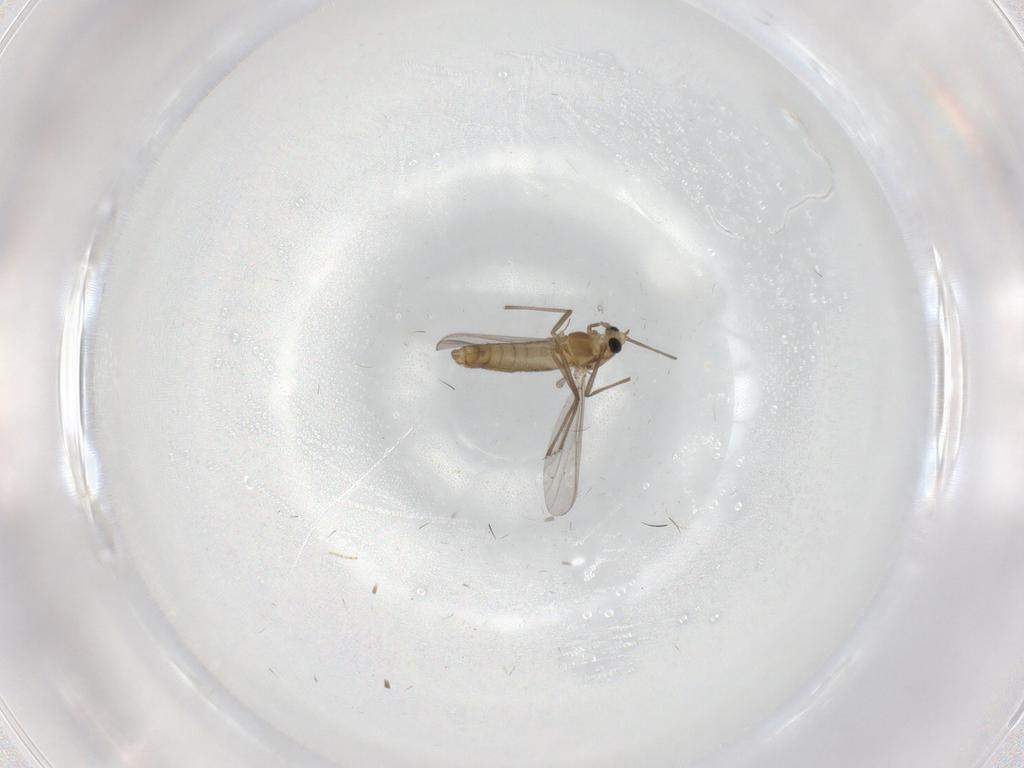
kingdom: Animalia
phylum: Arthropoda
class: Insecta
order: Diptera
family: Cecidomyiidae
